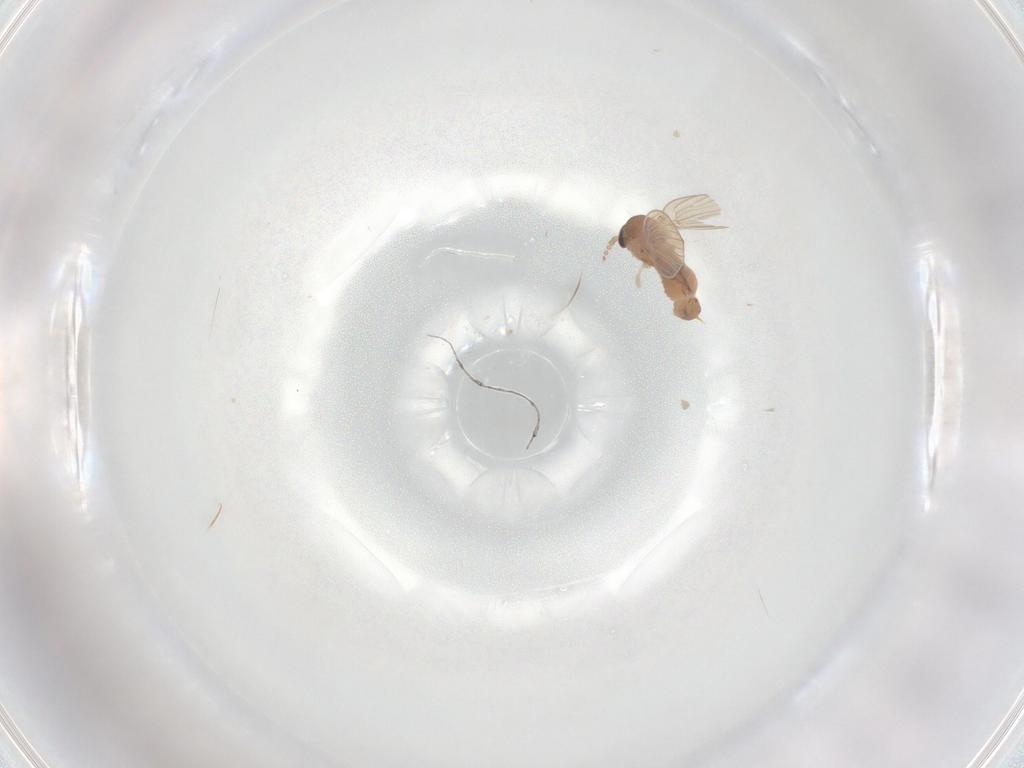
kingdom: Animalia
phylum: Arthropoda
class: Insecta
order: Diptera
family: Psychodidae
